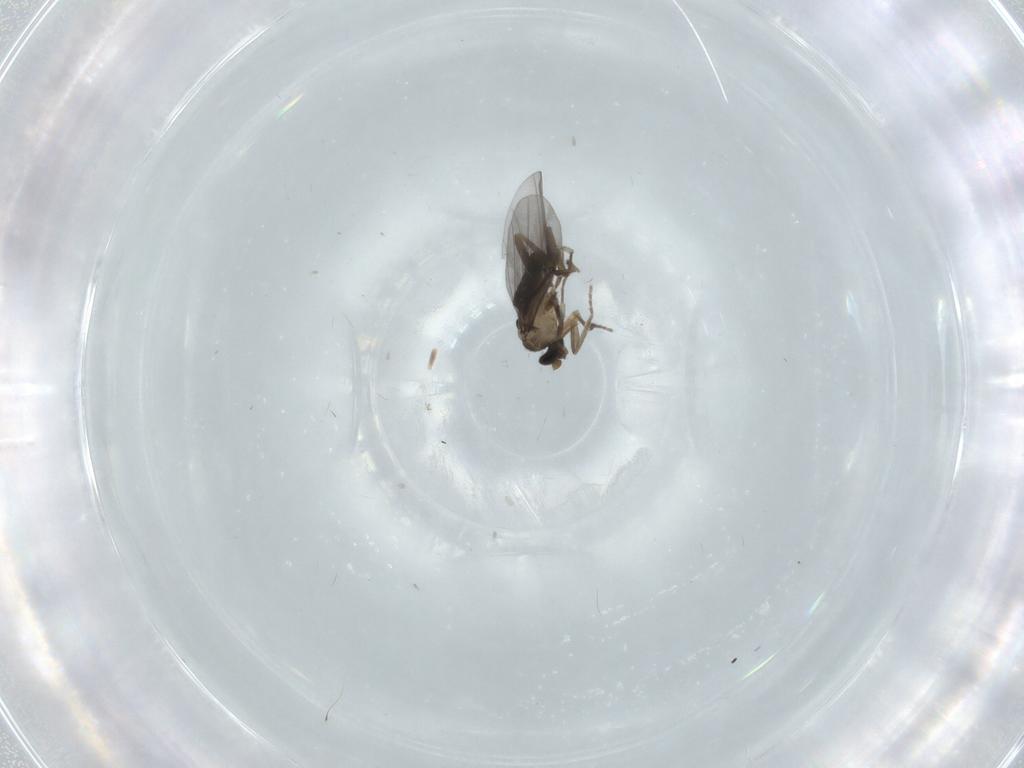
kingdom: Animalia
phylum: Arthropoda
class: Insecta
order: Diptera
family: Phoridae
